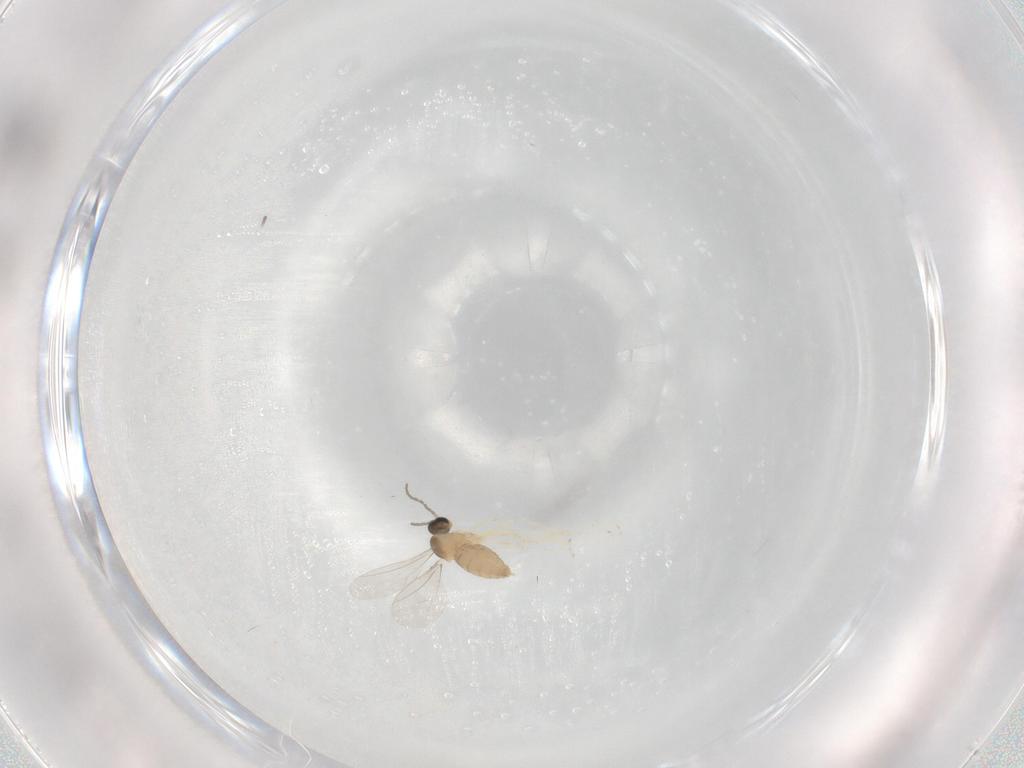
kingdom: Animalia
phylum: Arthropoda
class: Insecta
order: Diptera
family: Cecidomyiidae
